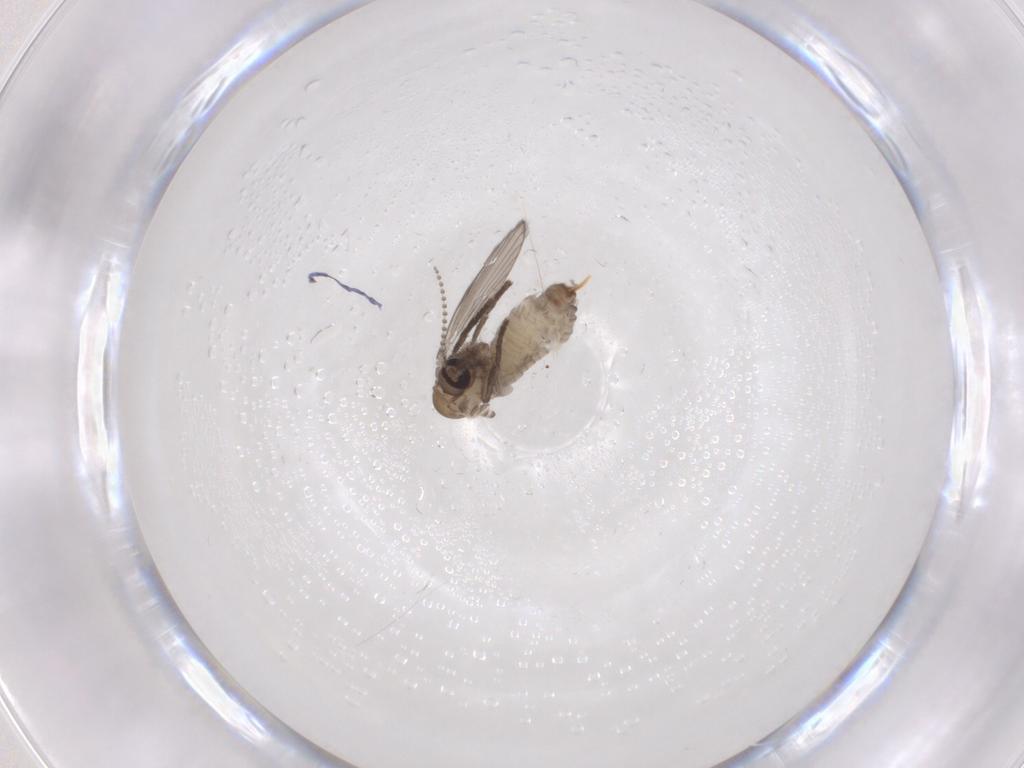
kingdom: Animalia
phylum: Arthropoda
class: Insecta
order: Diptera
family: Psychodidae
